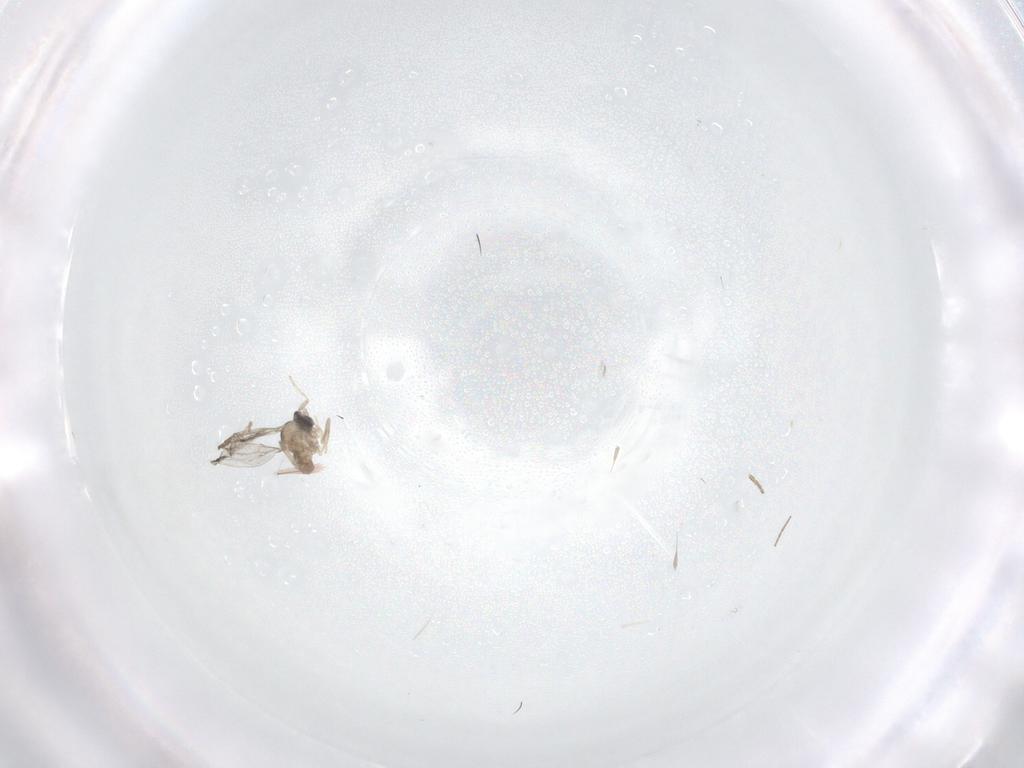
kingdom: Animalia
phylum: Arthropoda
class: Insecta
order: Diptera
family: Cecidomyiidae
